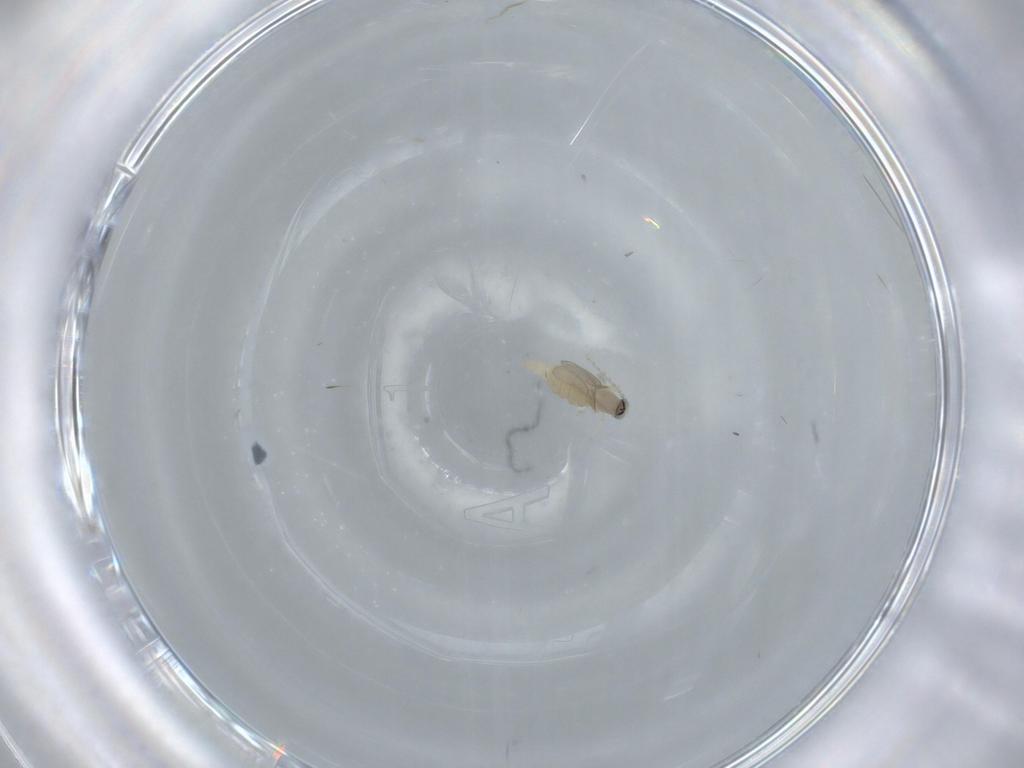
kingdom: Animalia
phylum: Arthropoda
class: Insecta
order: Diptera
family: Cecidomyiidae
